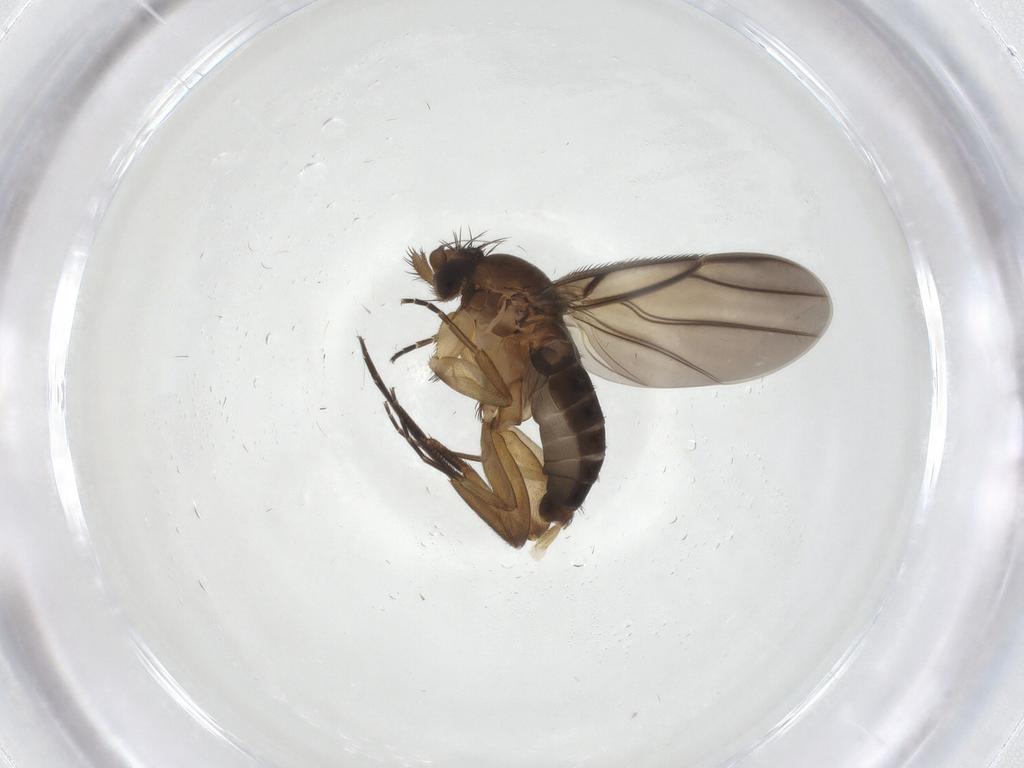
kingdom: Animalia
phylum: Arthropoda
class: Insecta
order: Diptera
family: Phoridae
